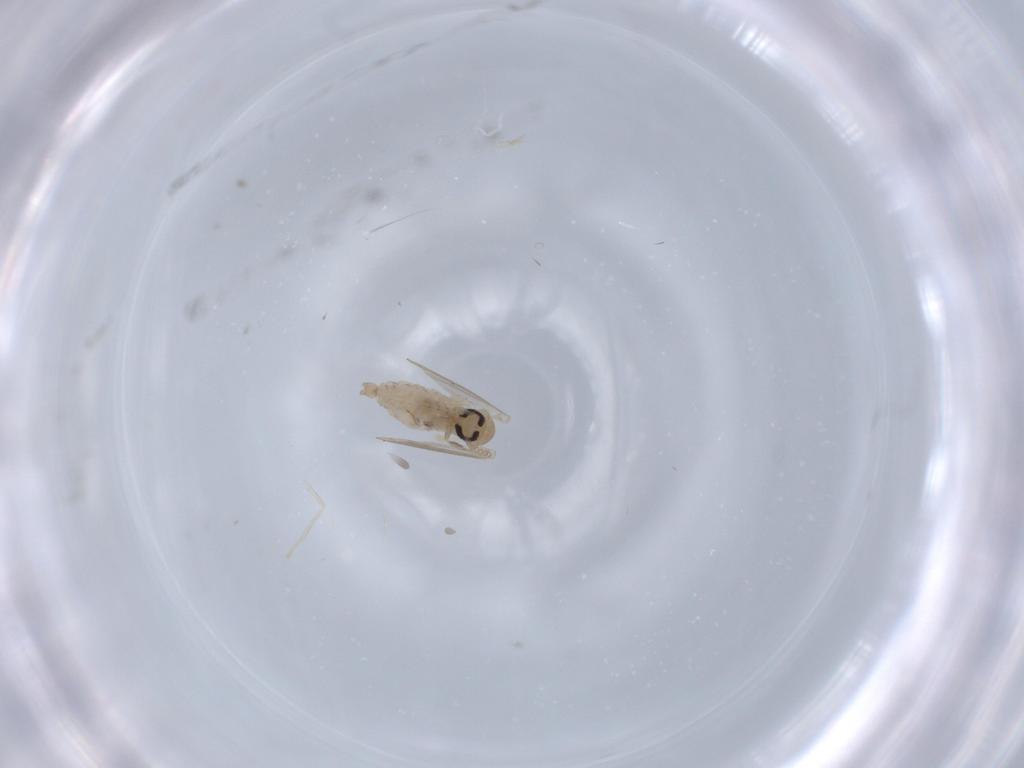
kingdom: Animalia
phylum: Arthropoda
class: Insecta
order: Diptera
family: Psychodidae
